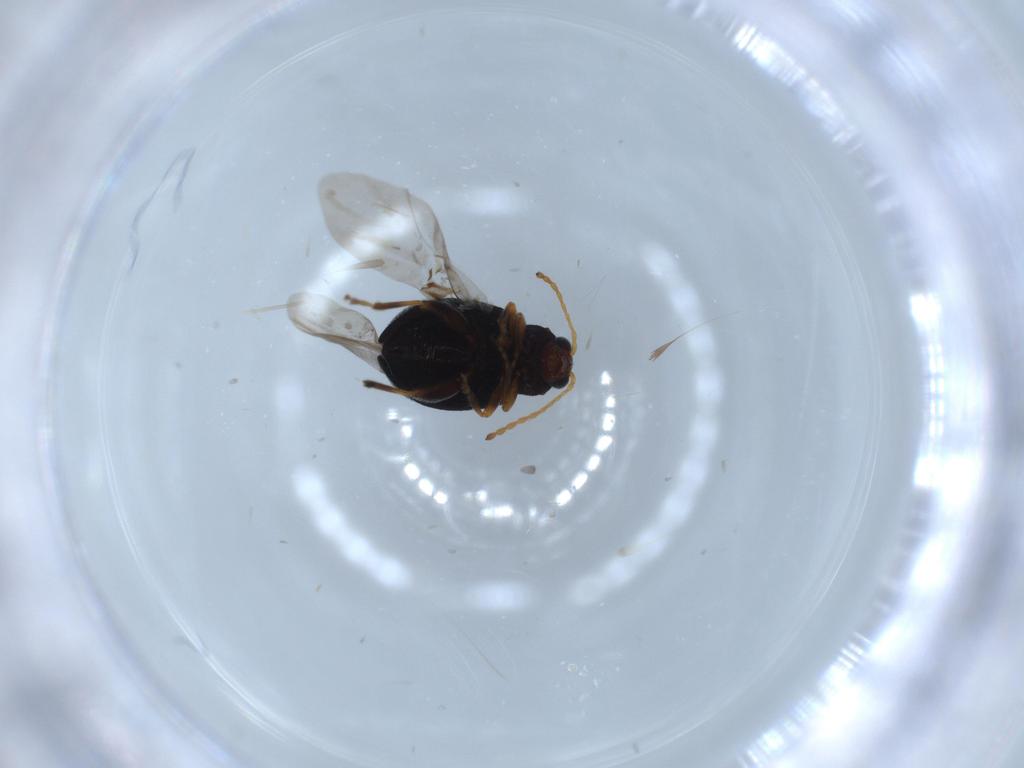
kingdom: Animalia
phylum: Arthropoda
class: Insecta
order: Coleoptera
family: Chrysomelidae
